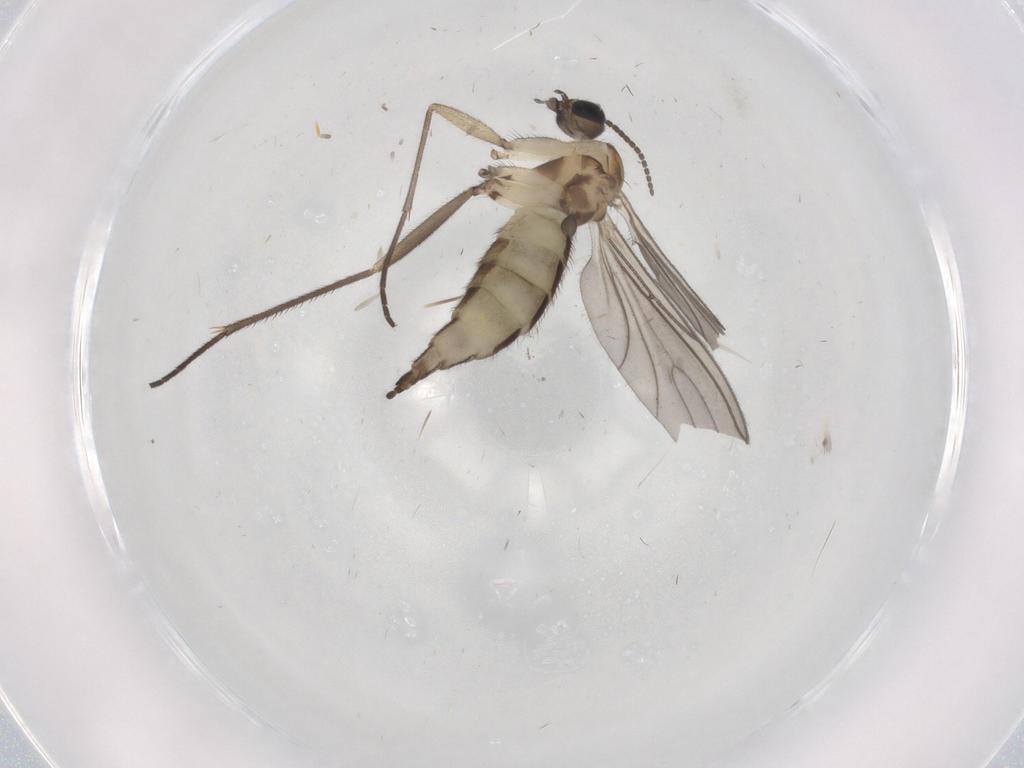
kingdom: Animalia
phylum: Arthropoda
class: Insecta
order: Diptera
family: Sciaridae
